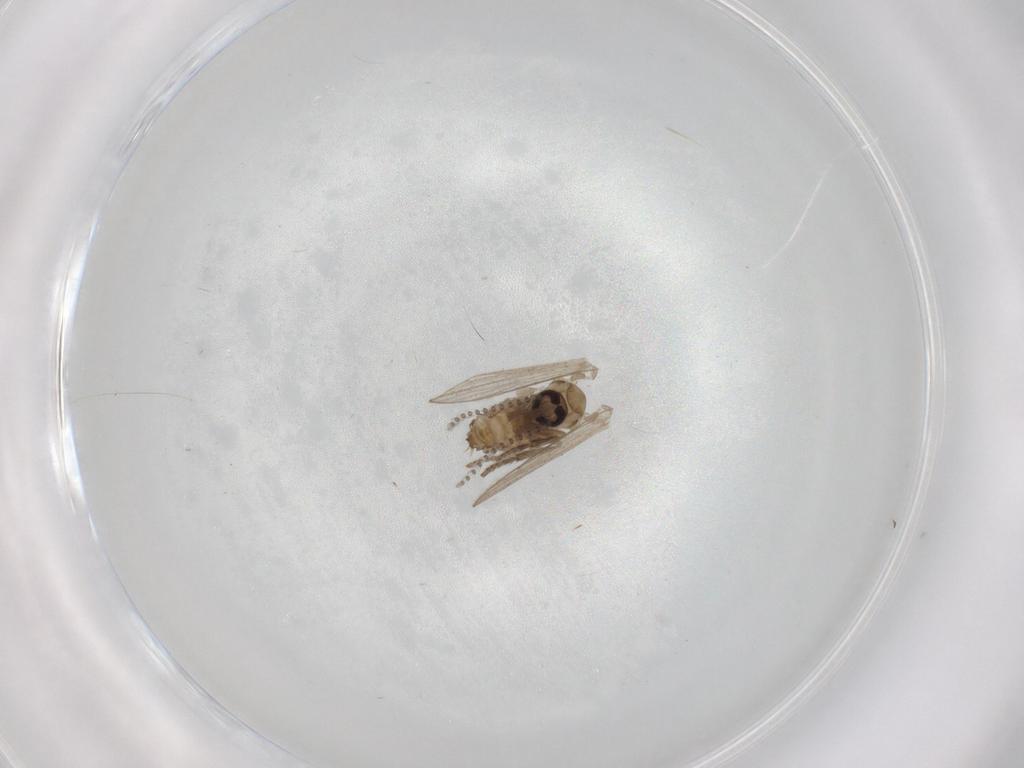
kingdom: Animalia
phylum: Arthropoda
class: Insecta
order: Diptera
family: Psychodidae
